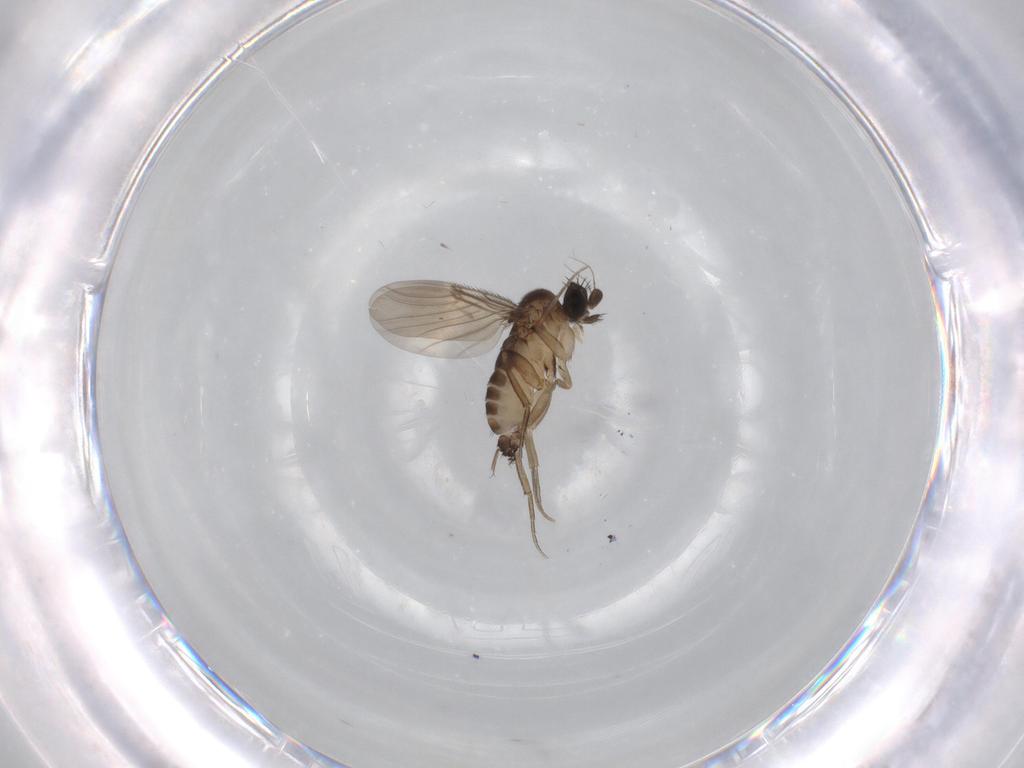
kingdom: Animalia
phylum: Arthropoda
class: Insecta
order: Diptera
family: Phoridae
